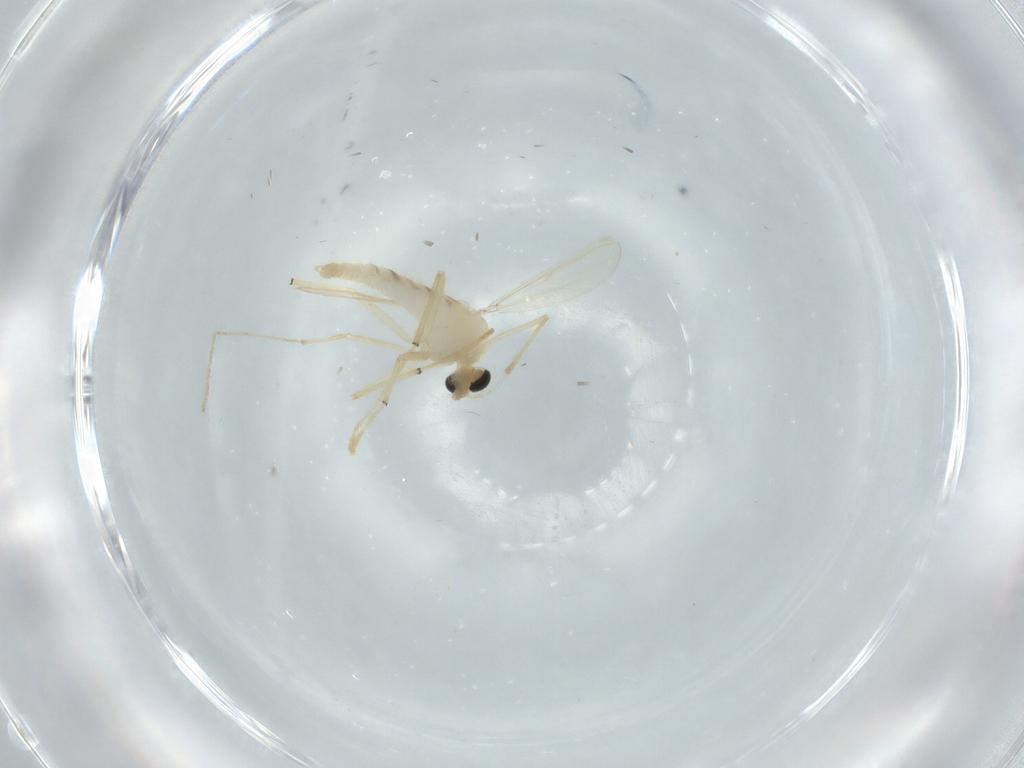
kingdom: Animalia
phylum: Arthropoda
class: Insecta
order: Diptera
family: Chironomidae
